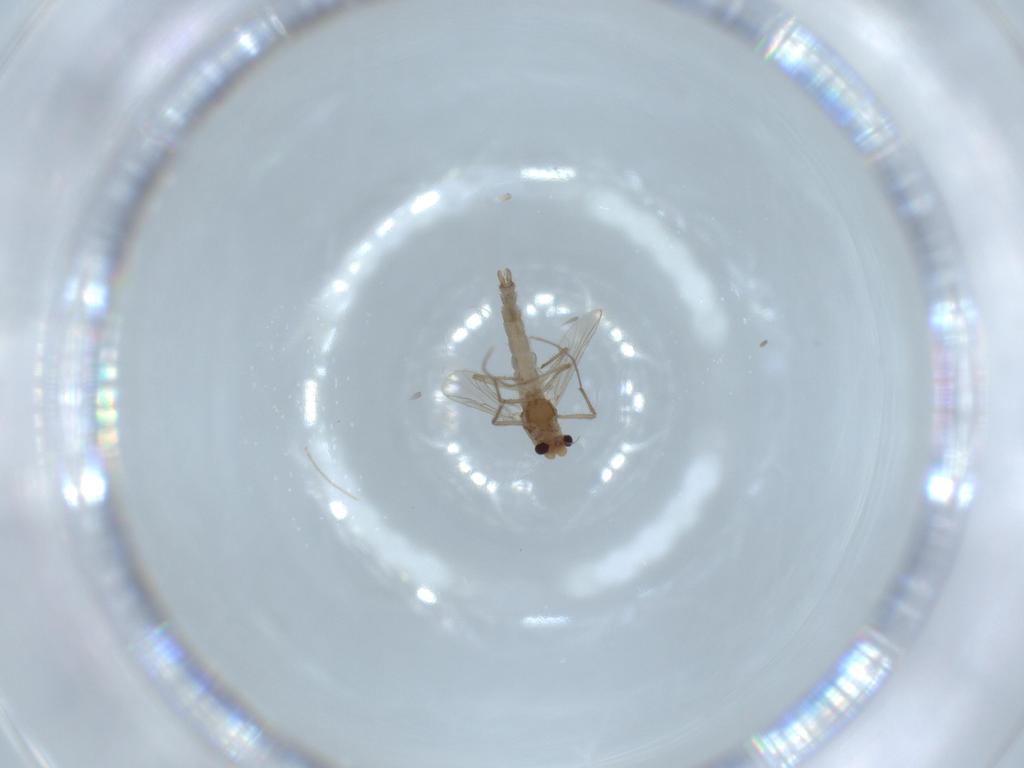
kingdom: Animalia
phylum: Arthropoda
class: Insecta
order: Diptera
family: Chironomidae
